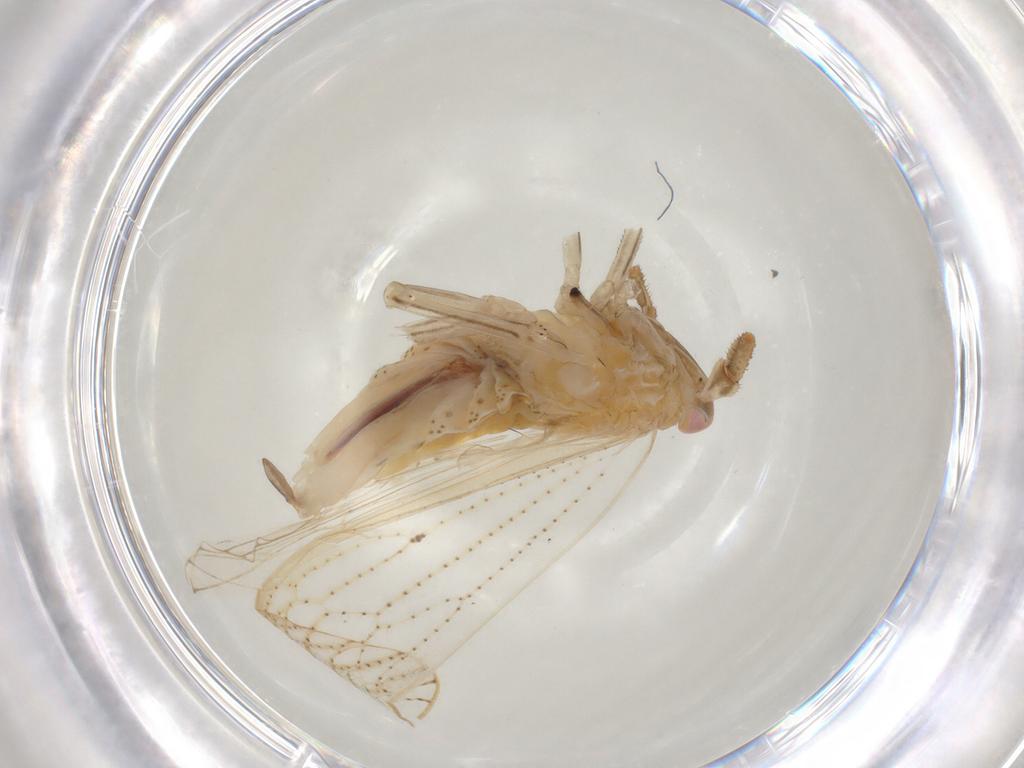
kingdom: Animalia
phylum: Arthropoda
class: Insecta
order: Hemiptera
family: Delphacidae
